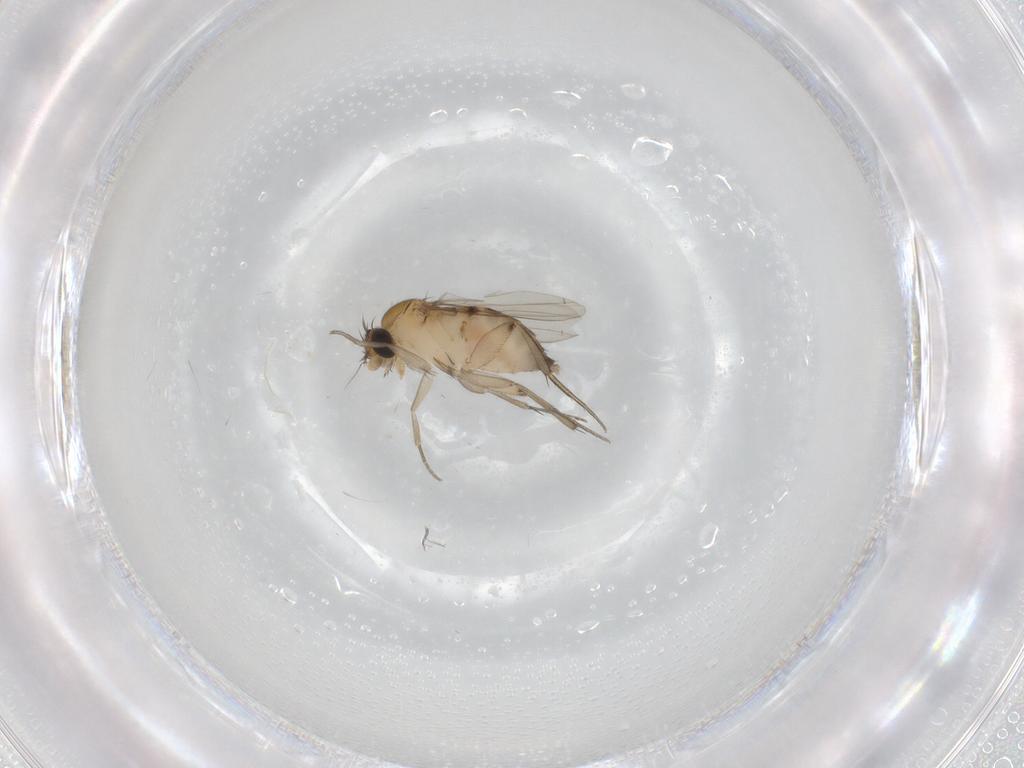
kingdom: Animalia
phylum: Arthropoda
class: Insecta
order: Diptera
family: Phoridae
